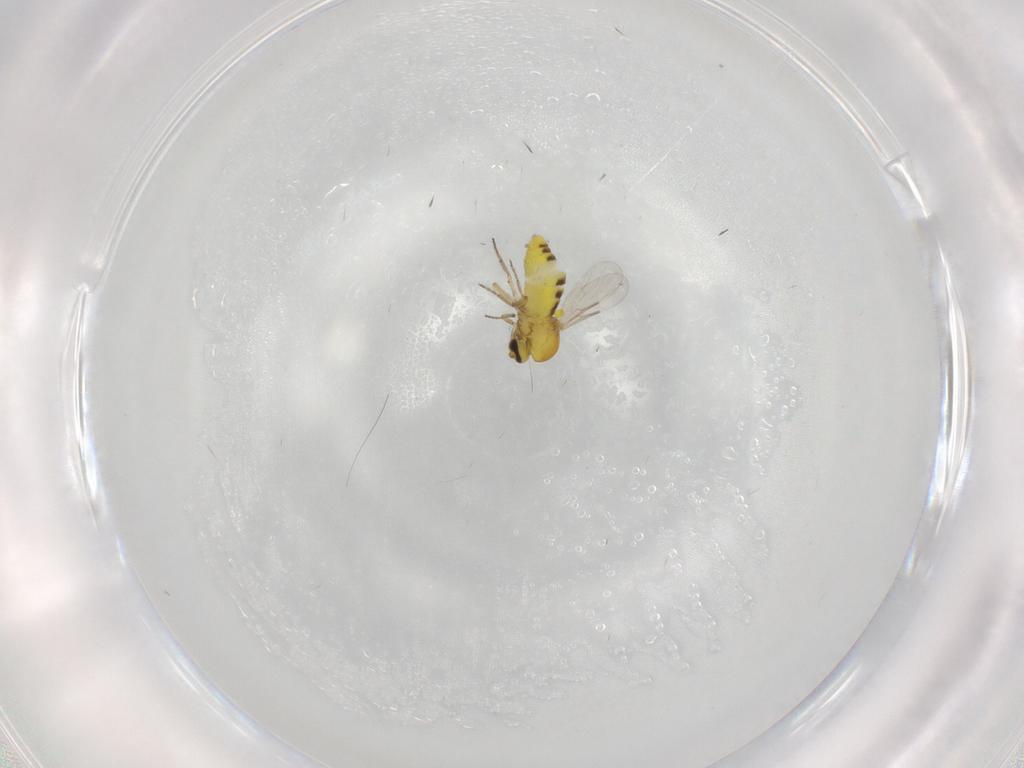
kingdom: Animalia
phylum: Arthropoda
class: Insecta
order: Diptera
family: Ceratopogonidae
